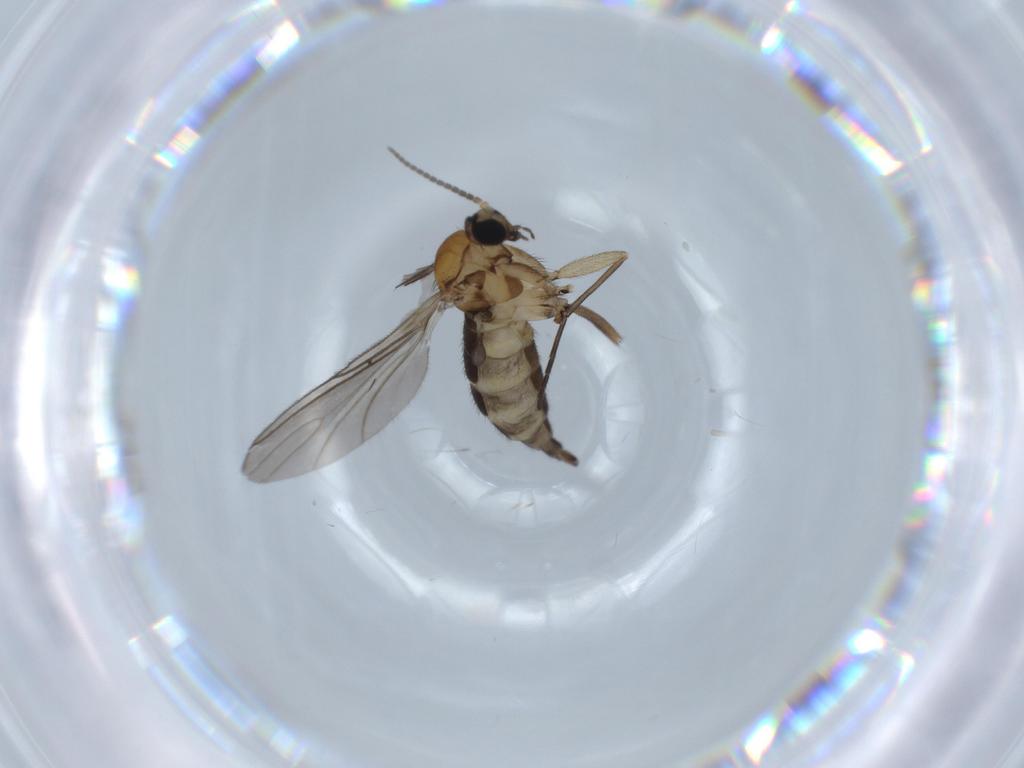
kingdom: Animalia
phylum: Arthropoda
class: Insecta
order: Diptera
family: Sciaridae
